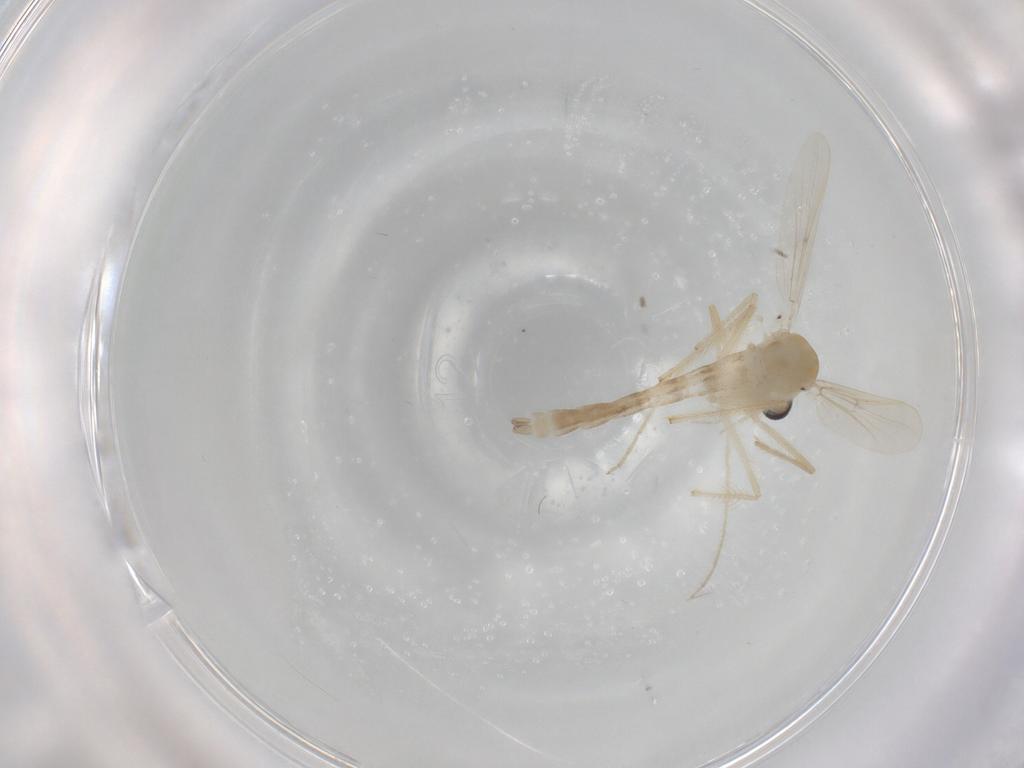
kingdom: Animalia
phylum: Arthropoda
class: Insecta
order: Diptera
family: Chironomidae
